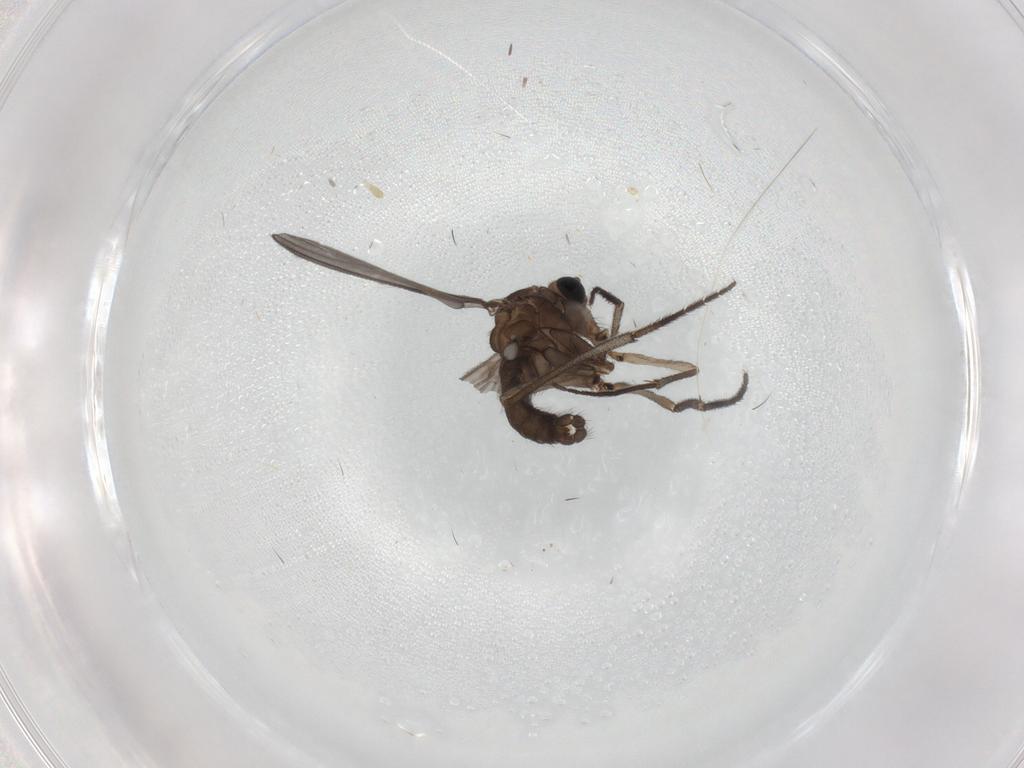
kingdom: Animalia
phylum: Arthropoda
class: Insecta
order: Diptera
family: Sciaridae
